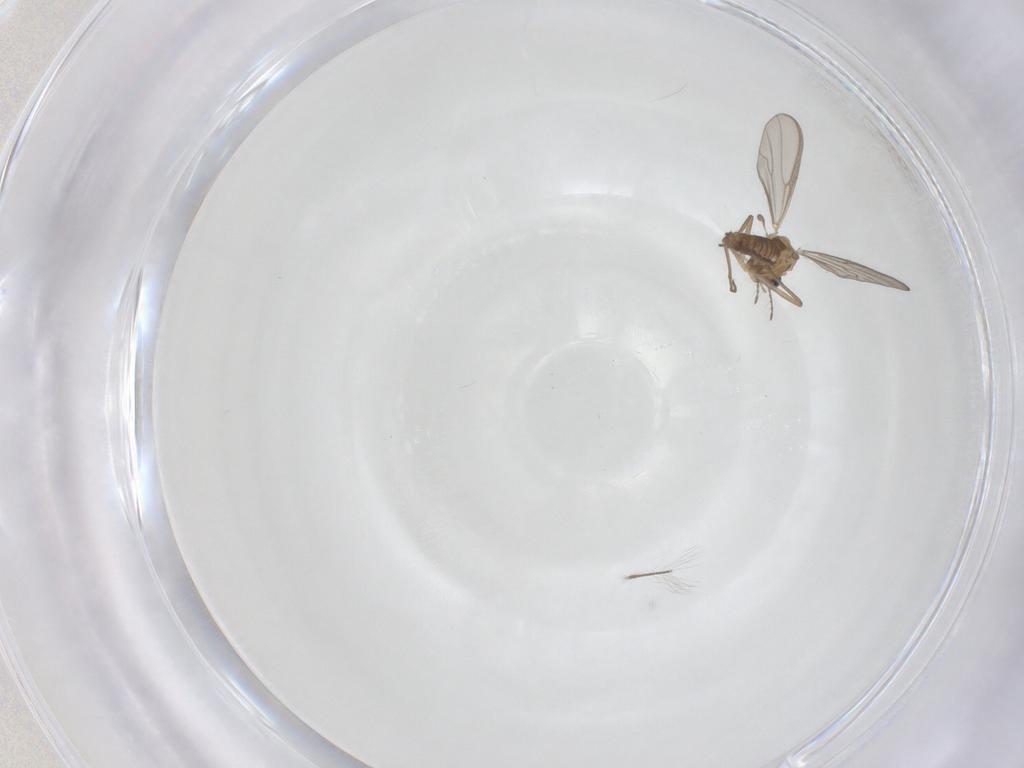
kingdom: Animalia
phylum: Arthropoda
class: Insecta
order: Diptera
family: Chironomidae
